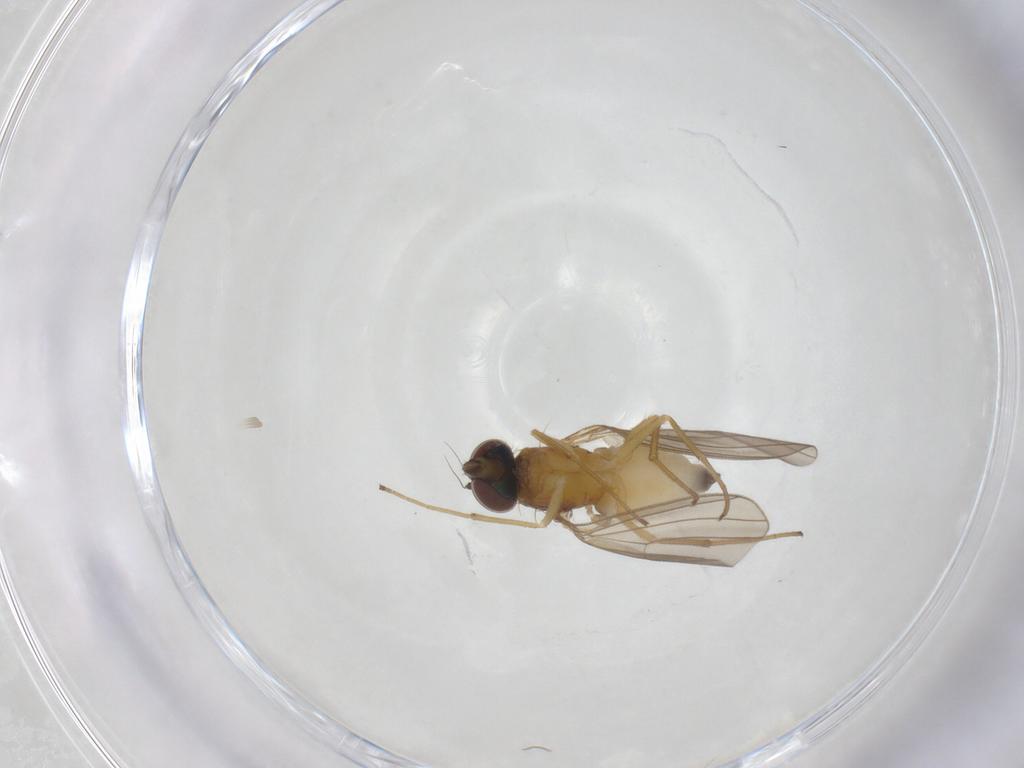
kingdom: Animalia
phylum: Arthropoda
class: Insecta
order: Diptera
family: Dolichopodidae
